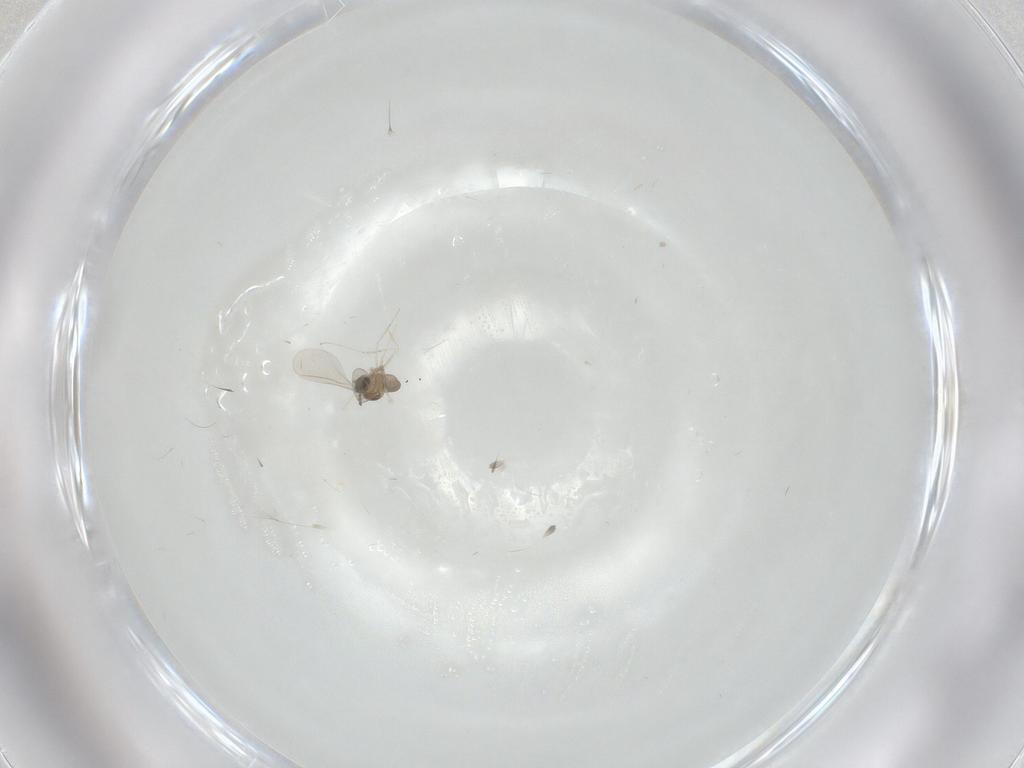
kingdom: Animalia
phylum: Arthropoda
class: Insecta
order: Diptera
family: Cecidomyiidae
